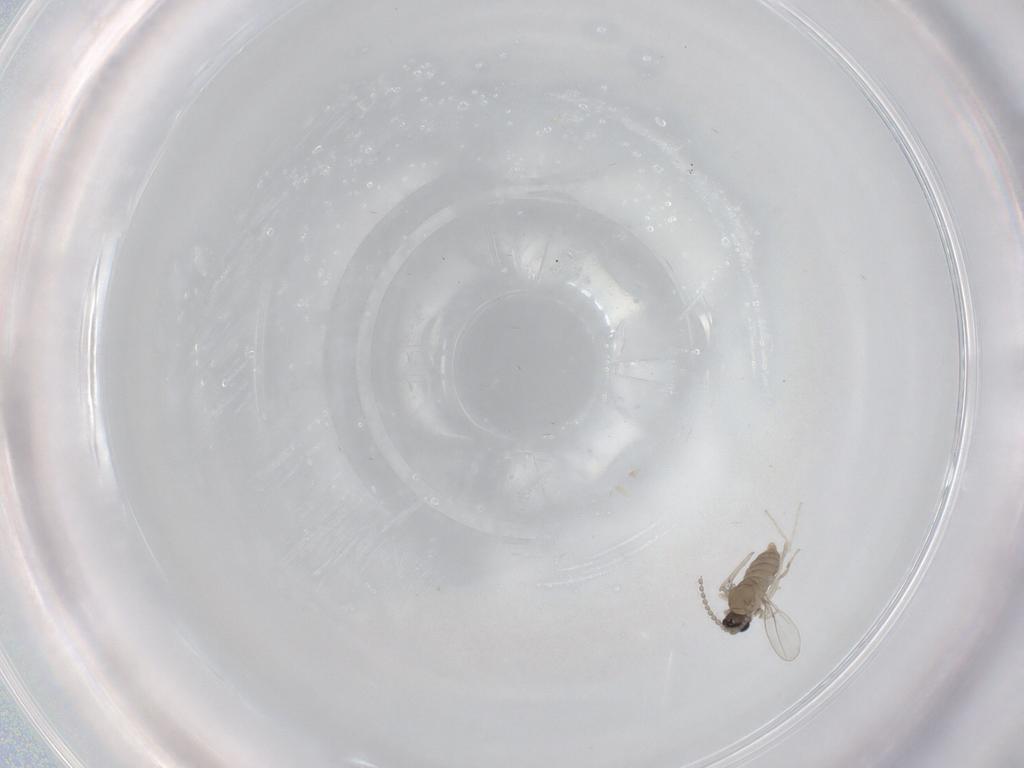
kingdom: Animalia
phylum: Arthropoda
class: Insecta
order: Diptera
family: Cecidomyiidae
